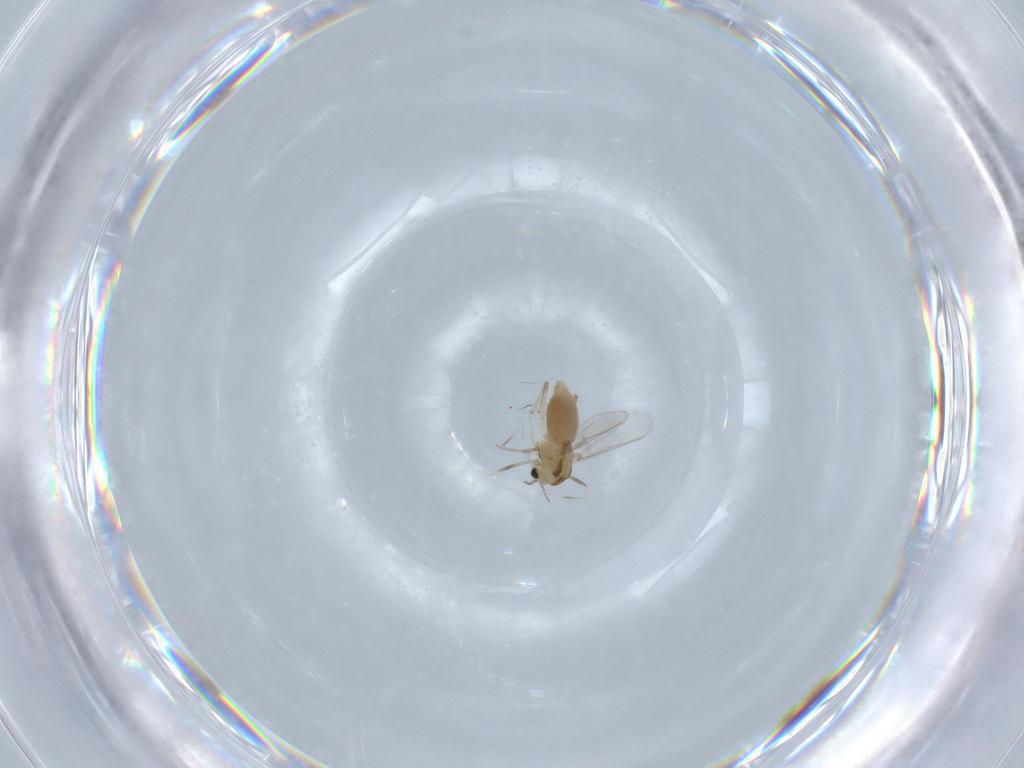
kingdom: Animalia
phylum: Arthropoda
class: Insecta
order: Diptera
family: Chironomidae
